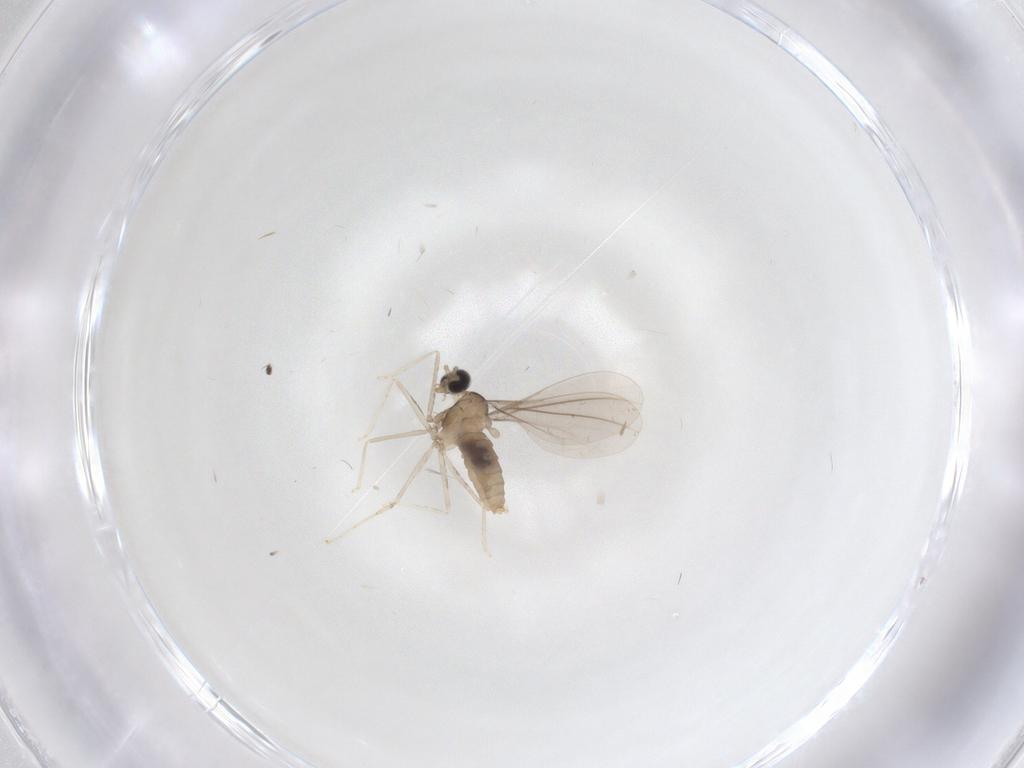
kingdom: Animalia
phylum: Arthropoda
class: Insecta
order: Diptera
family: Cecidomyiidae
